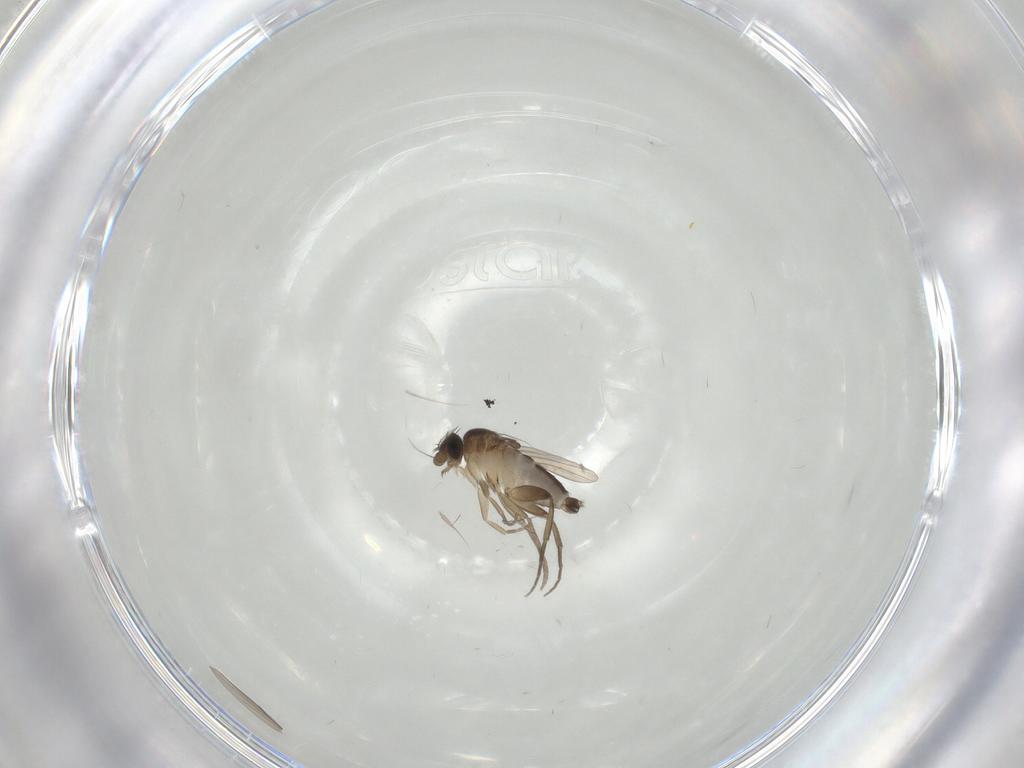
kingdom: Animalia
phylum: Arthropoda
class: Insecta
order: Diptera
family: Phoridae
